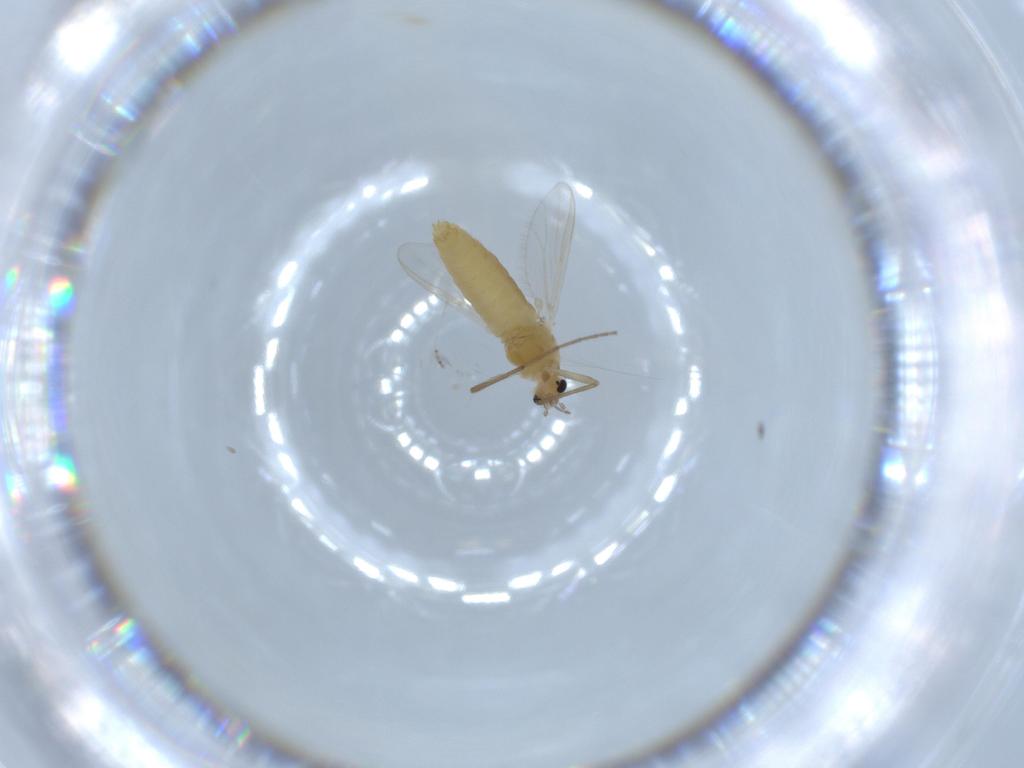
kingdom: Animalia
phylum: Arthropoda
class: Insecta
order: Diptera
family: Chironomidae
